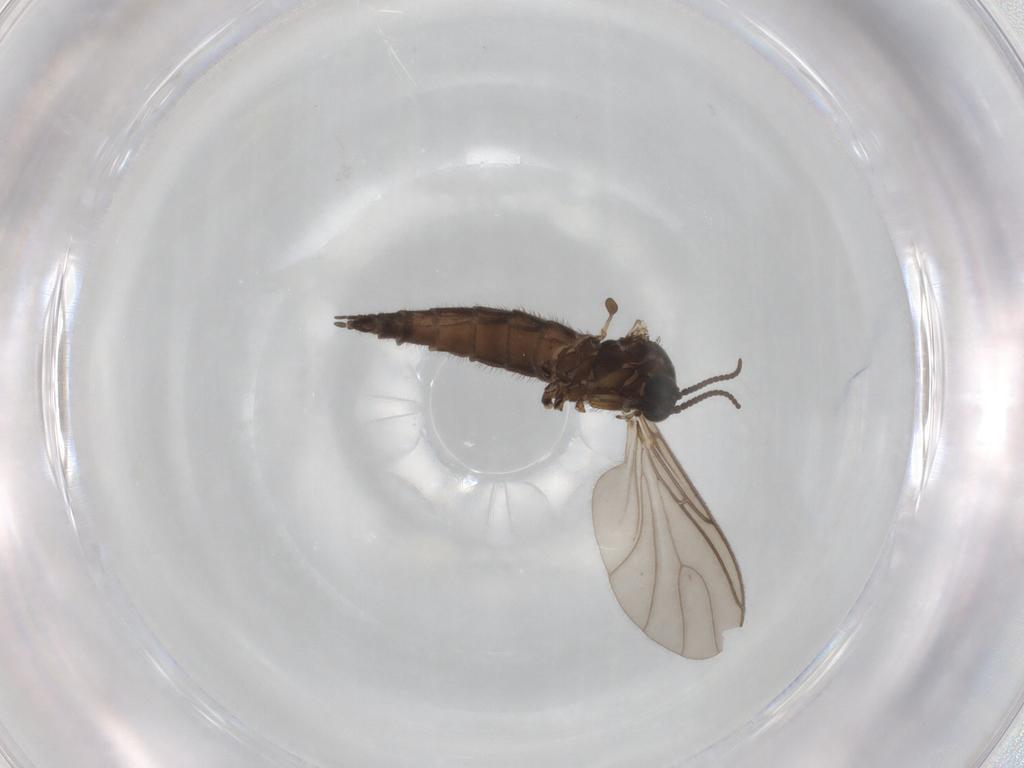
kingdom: Animalia
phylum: Arthropoda
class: Insecta
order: Diptera
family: Sciaridae
